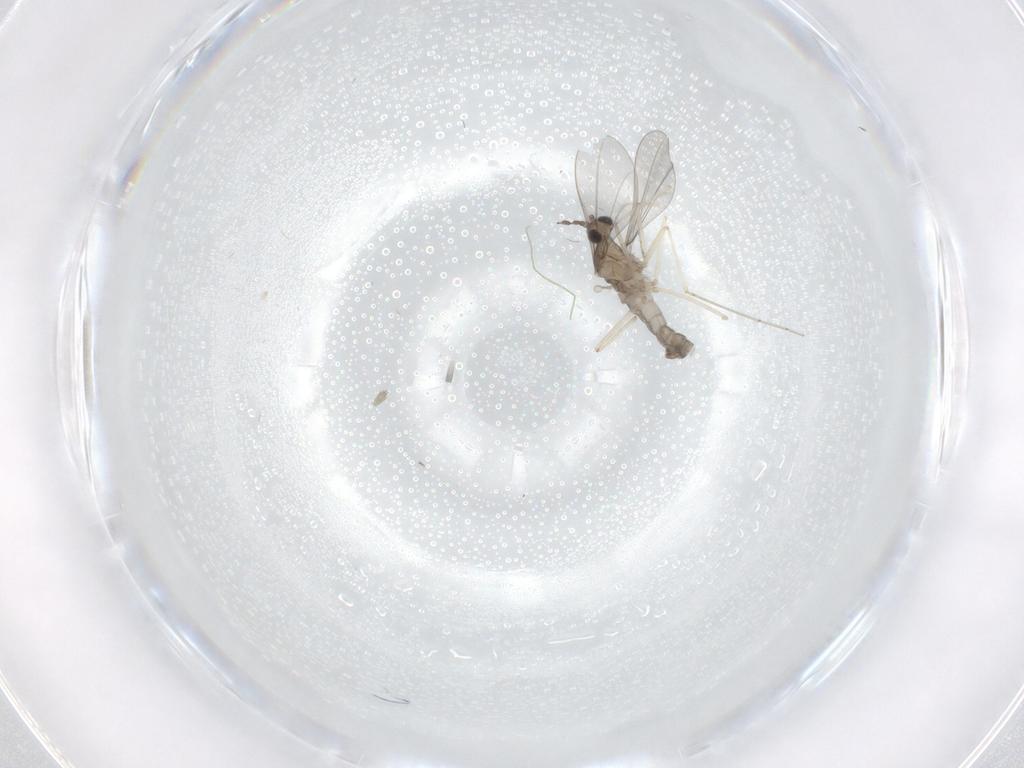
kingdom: Animalia
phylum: Arthropoda
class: Insecta
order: Diptera
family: Cecidomyiidae
